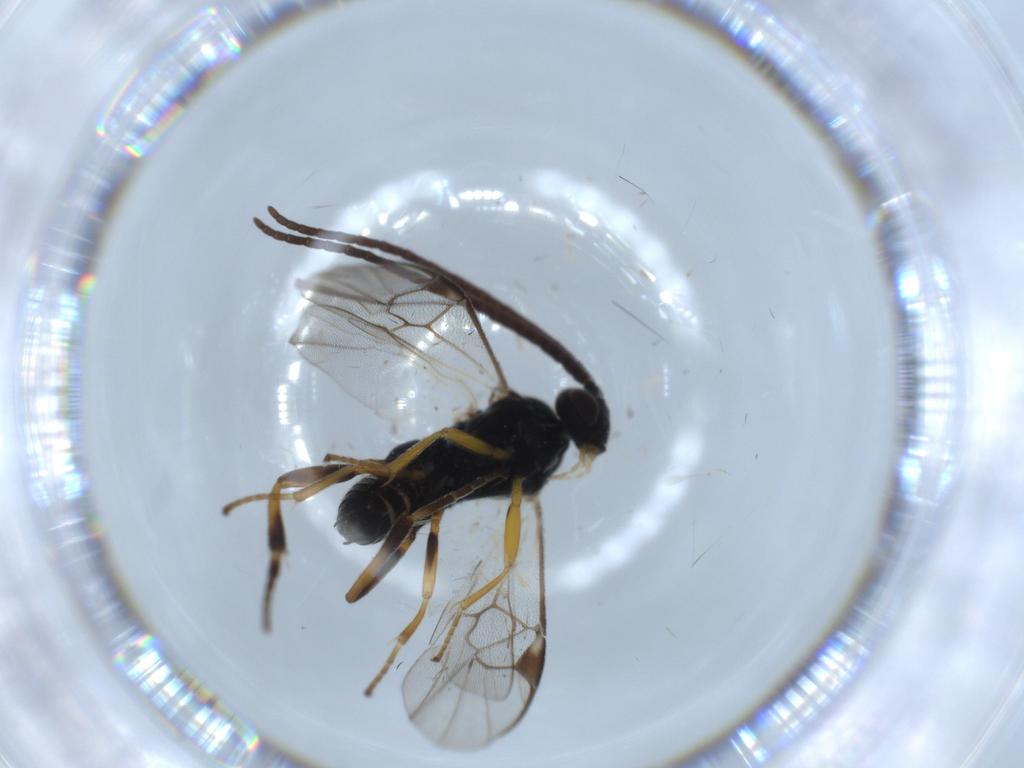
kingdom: Animalia
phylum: Arthropoda
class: Insecta
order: Hymenoptera
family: Braconidae
